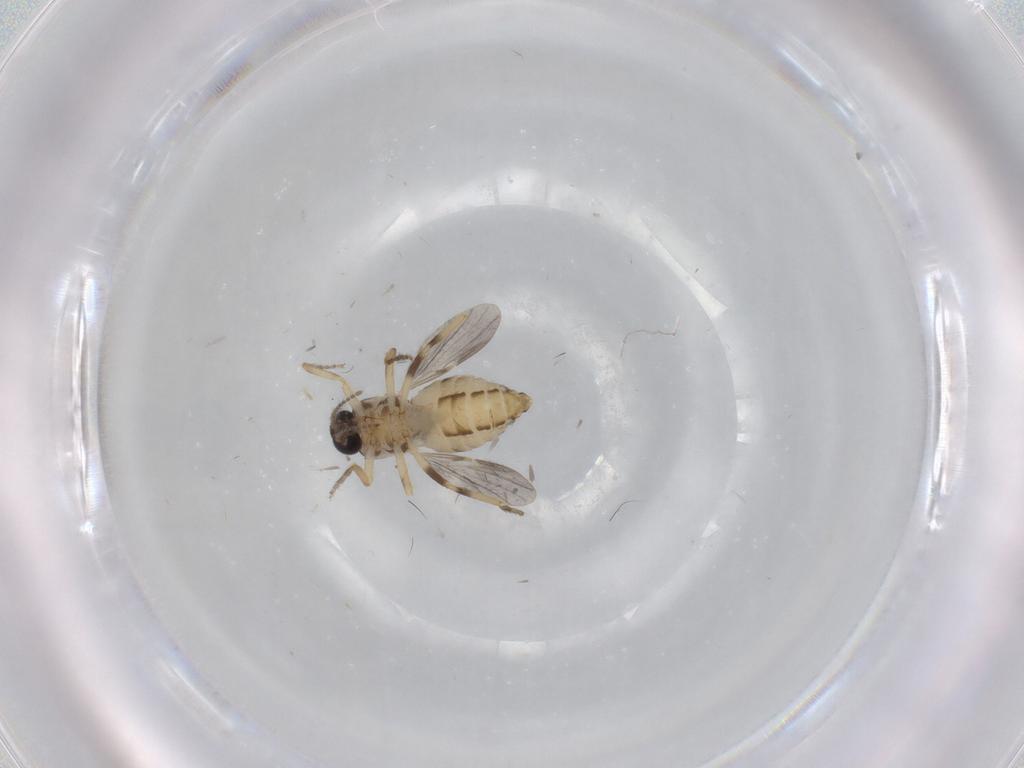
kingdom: Animalia
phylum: Arthropoda
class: Insecta
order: Diptera
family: Ceratopogonidae
